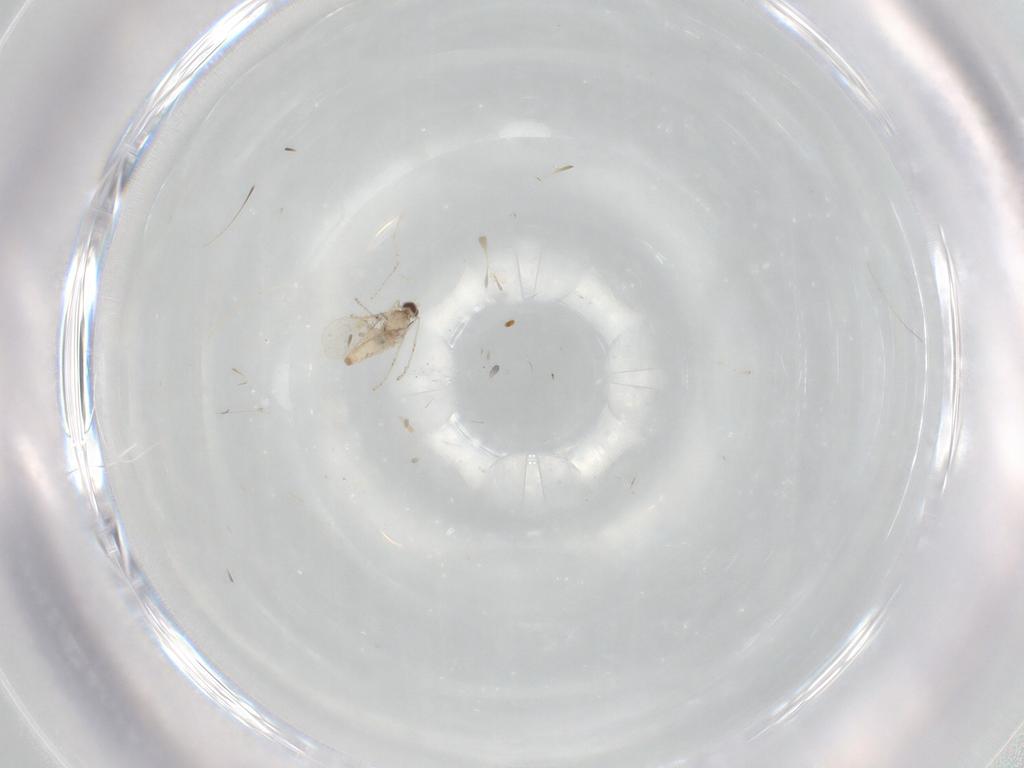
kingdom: Animalia
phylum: Arthropoda
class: Insecta
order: Diptera
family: Cecidomyiidae
